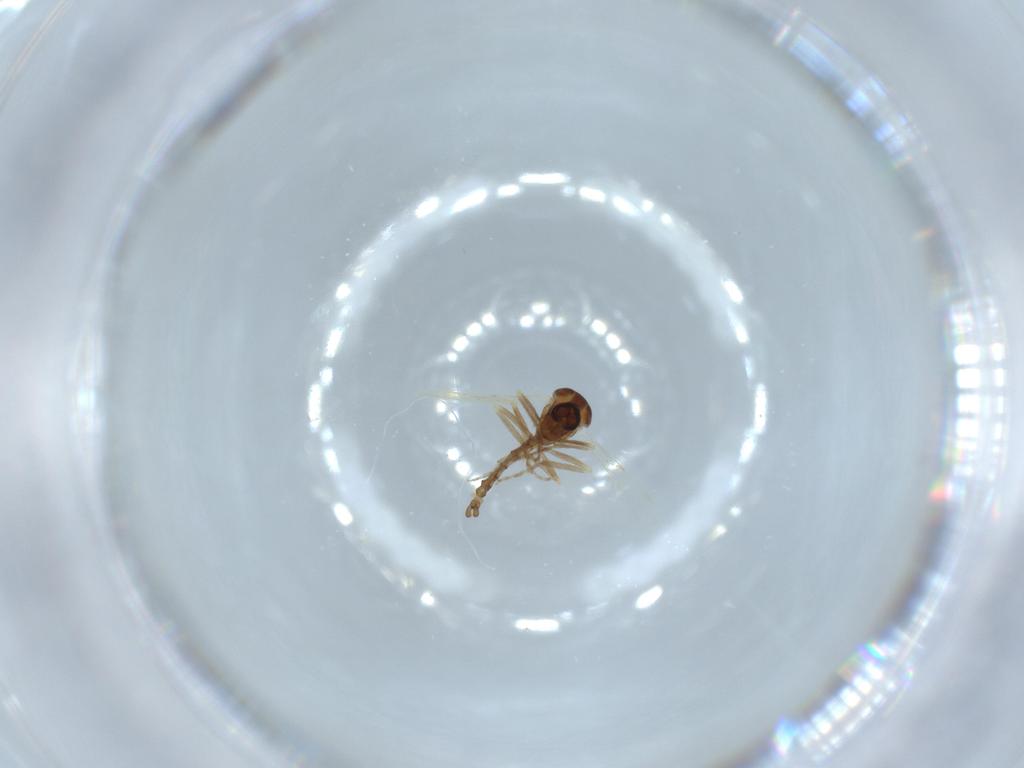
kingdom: Animalia
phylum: Arthropoda
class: Insecta
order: Diptera
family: Ceratopogonidae
